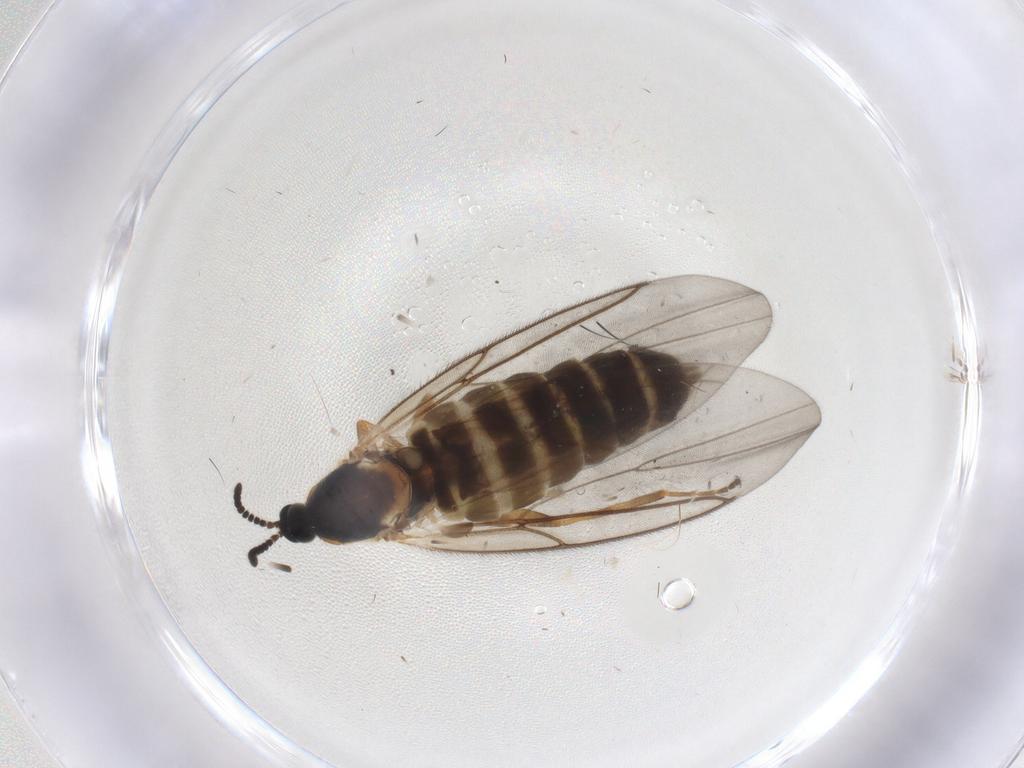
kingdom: Animalia
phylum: Arthropoda
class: Insecta
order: Diptera
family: Scatopsidae
